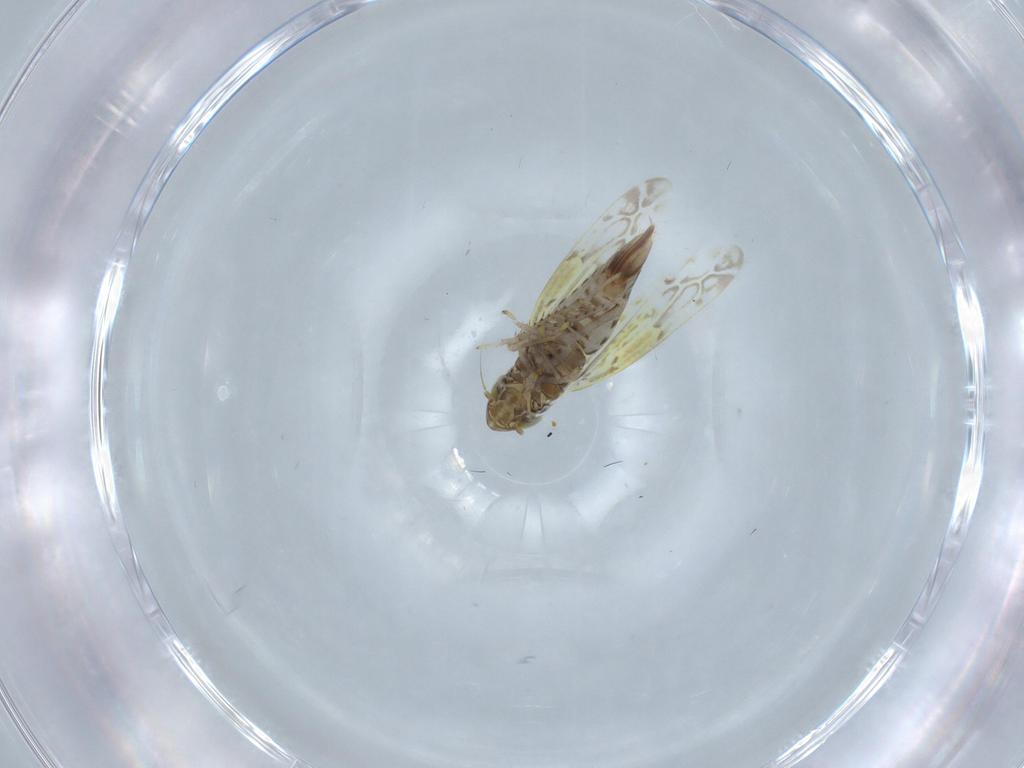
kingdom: Animalia
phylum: Arthropoda
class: Insecta
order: Hemiptera
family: Cicadellidae
